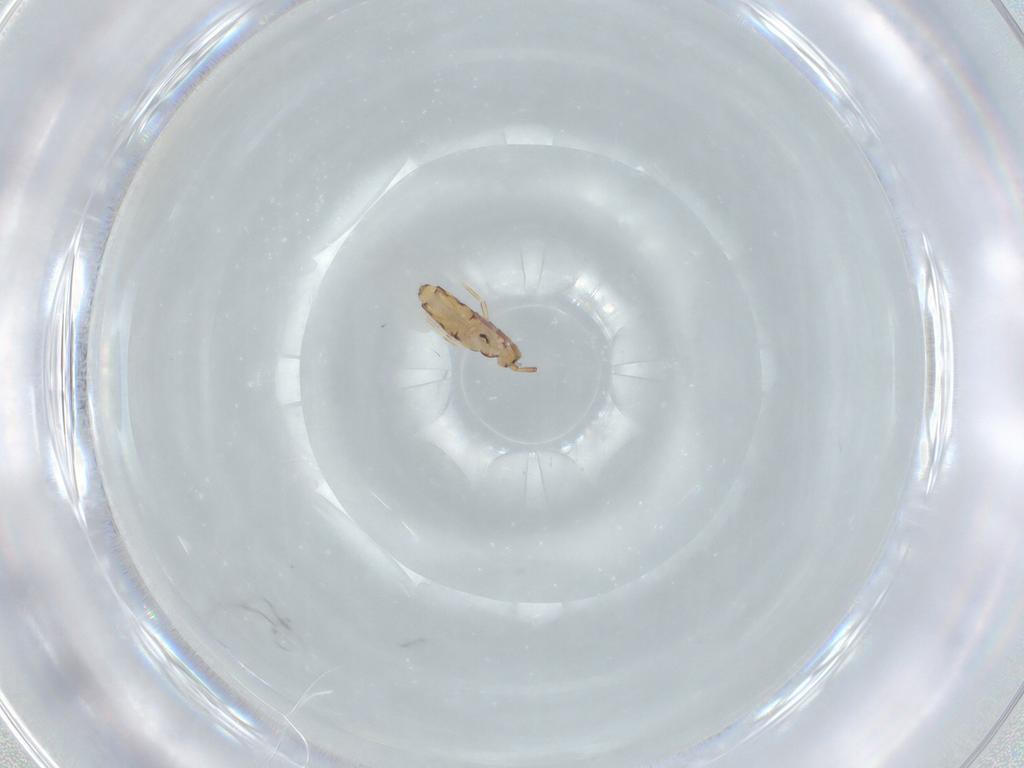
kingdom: Animalia
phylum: Arthropoda
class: Collembola
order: Entomobryomorpha
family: Entomobryidae
